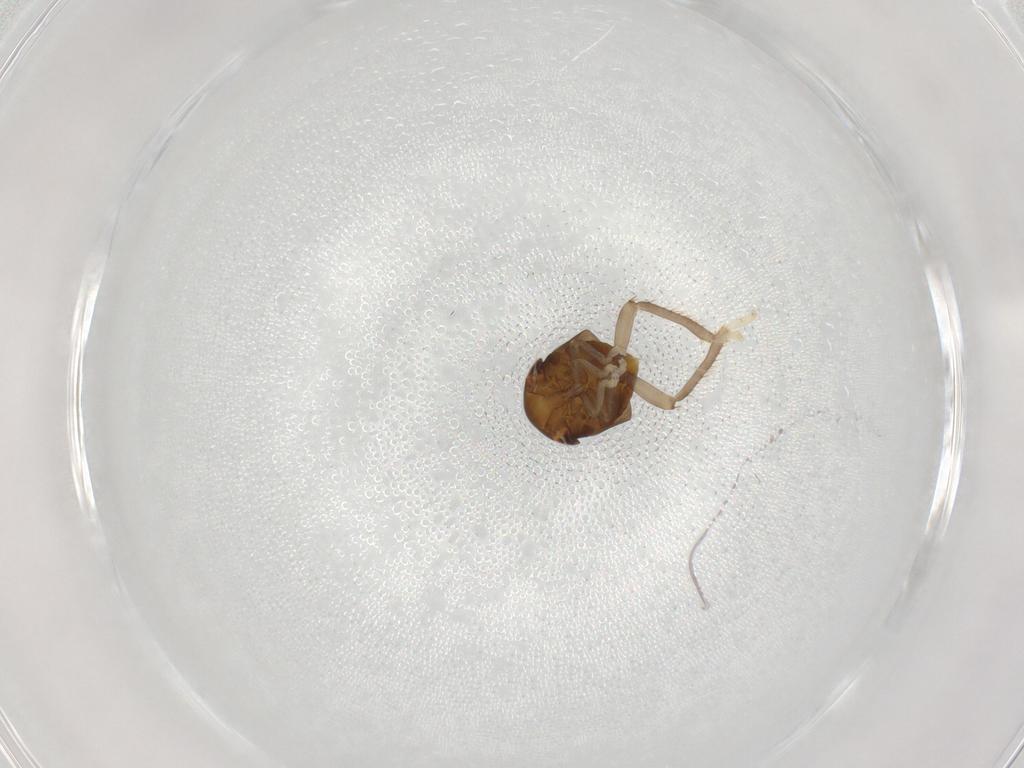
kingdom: Animalia
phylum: Arthropoda
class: Insecta
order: Hemiptera
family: Cicadellidae
